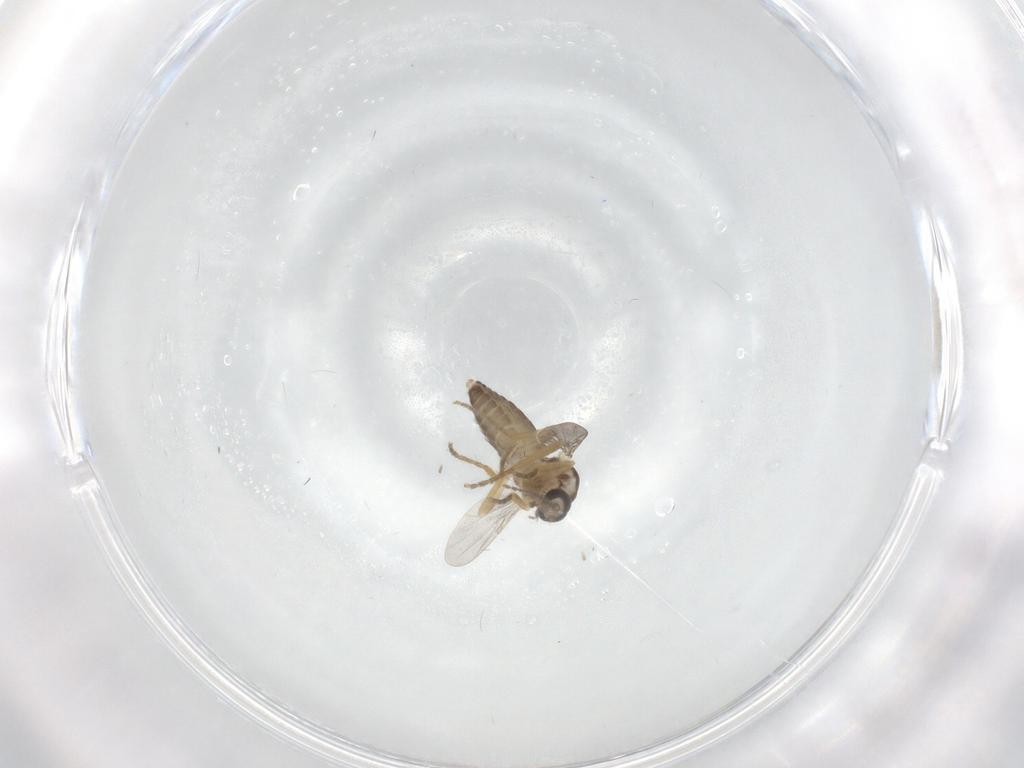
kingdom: Animalia
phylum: Arthropoda
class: Insecta
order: Diptera
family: Ceratopogonidae
